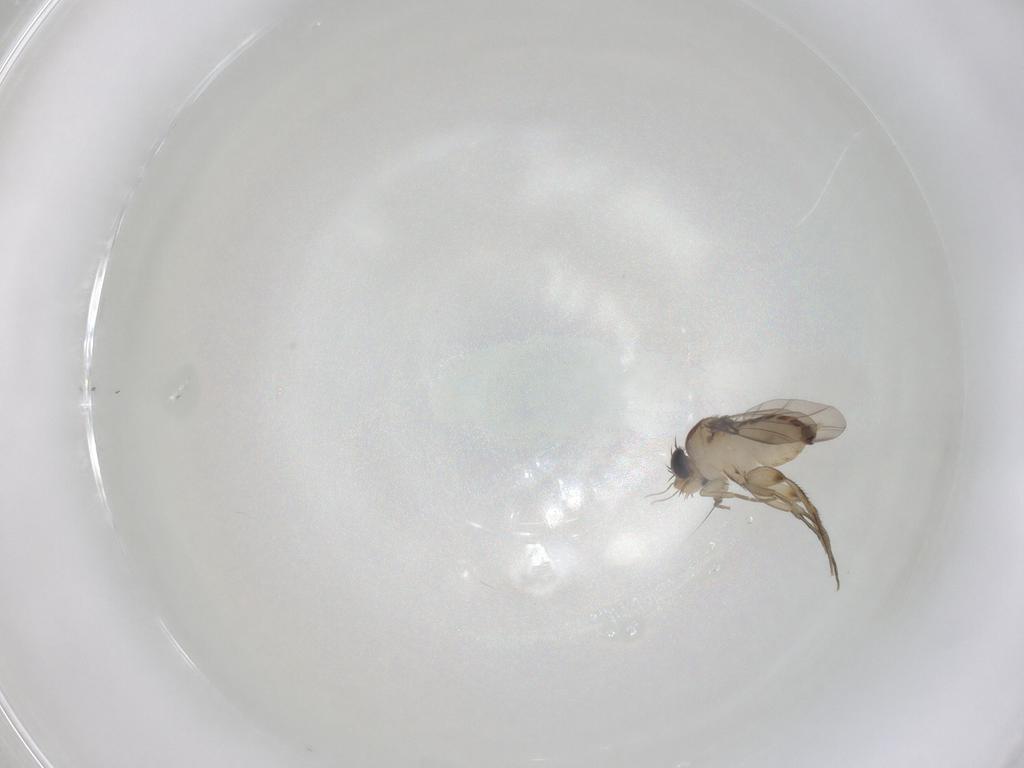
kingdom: Animalia
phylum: Arthropoda
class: Insecta
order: Diptera
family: Phoridae
